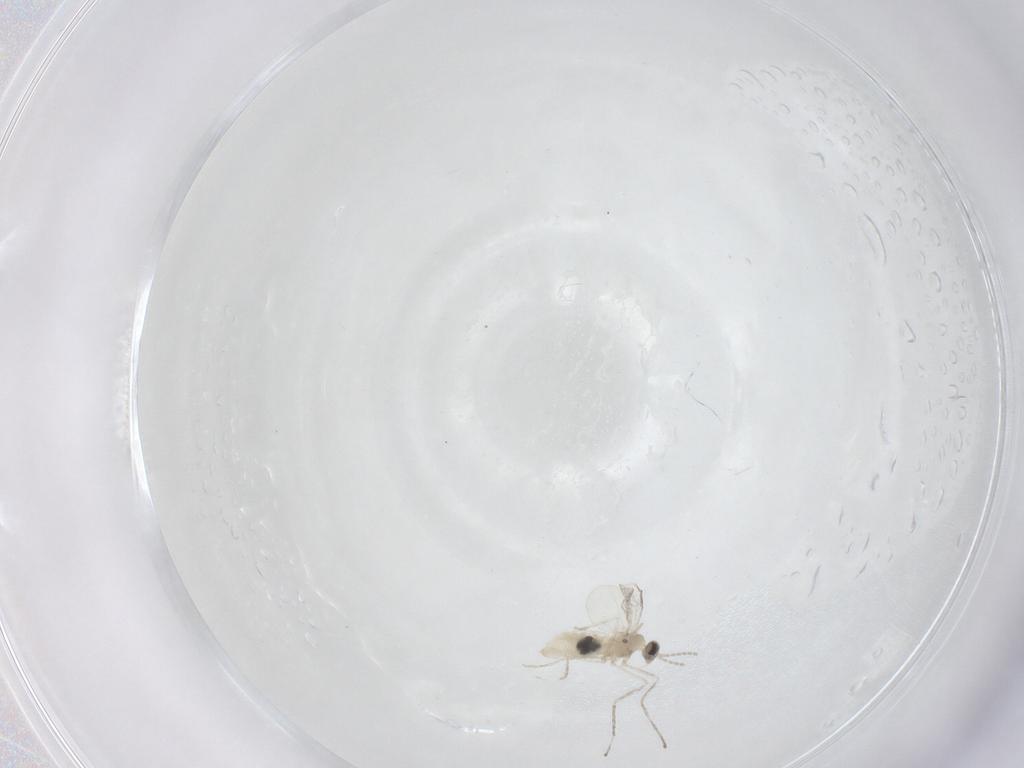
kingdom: Animalia
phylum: Arthropoda
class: Insecta
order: Diptera
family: Cecidomyiidae
